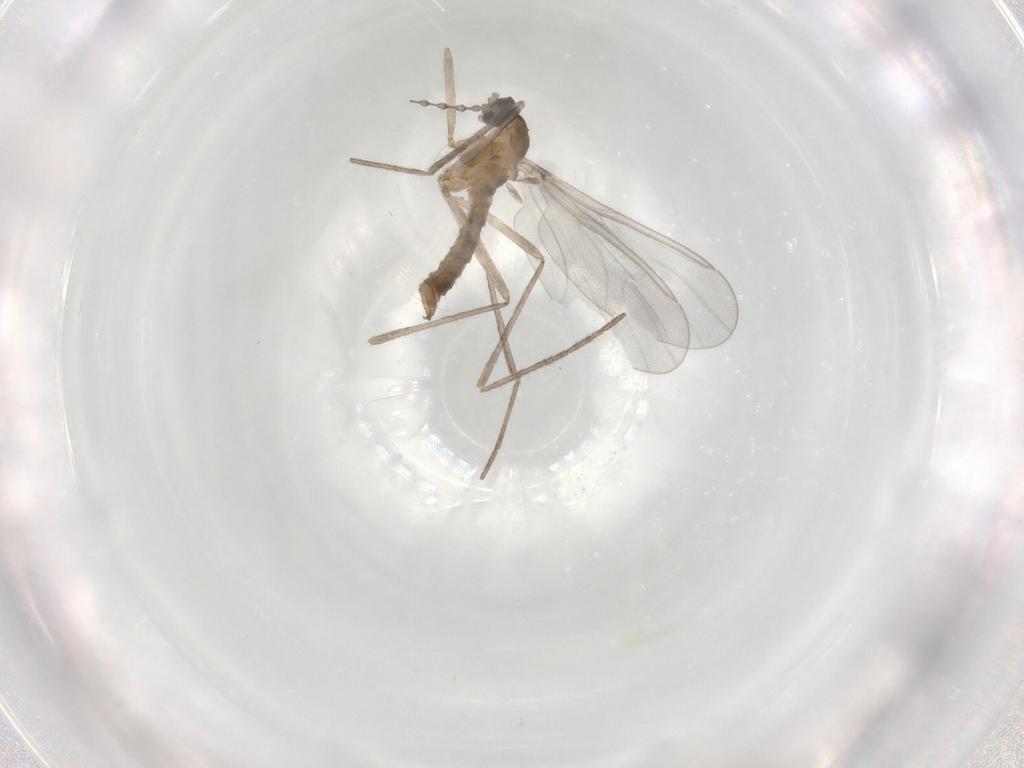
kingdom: Animalia
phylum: Arthropoda
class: Insecta
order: Diptera
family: Cecidomyiidae
